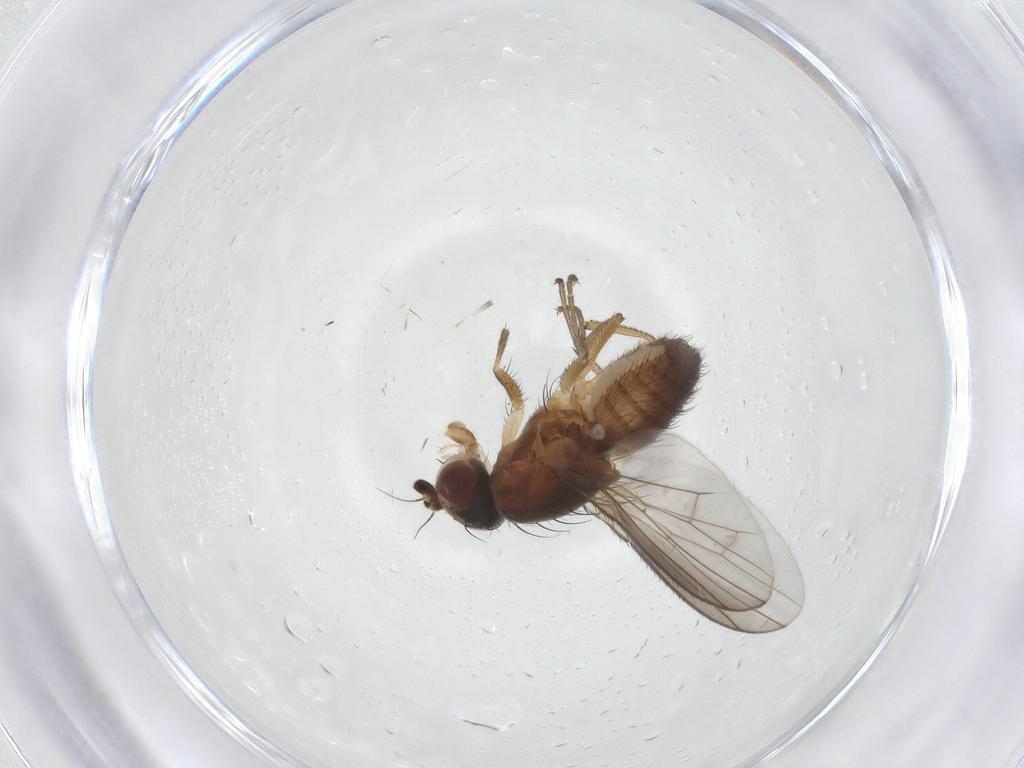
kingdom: Animalia
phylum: Arthropoda
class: Insecta
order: Diptera
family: Heleomyzidae
